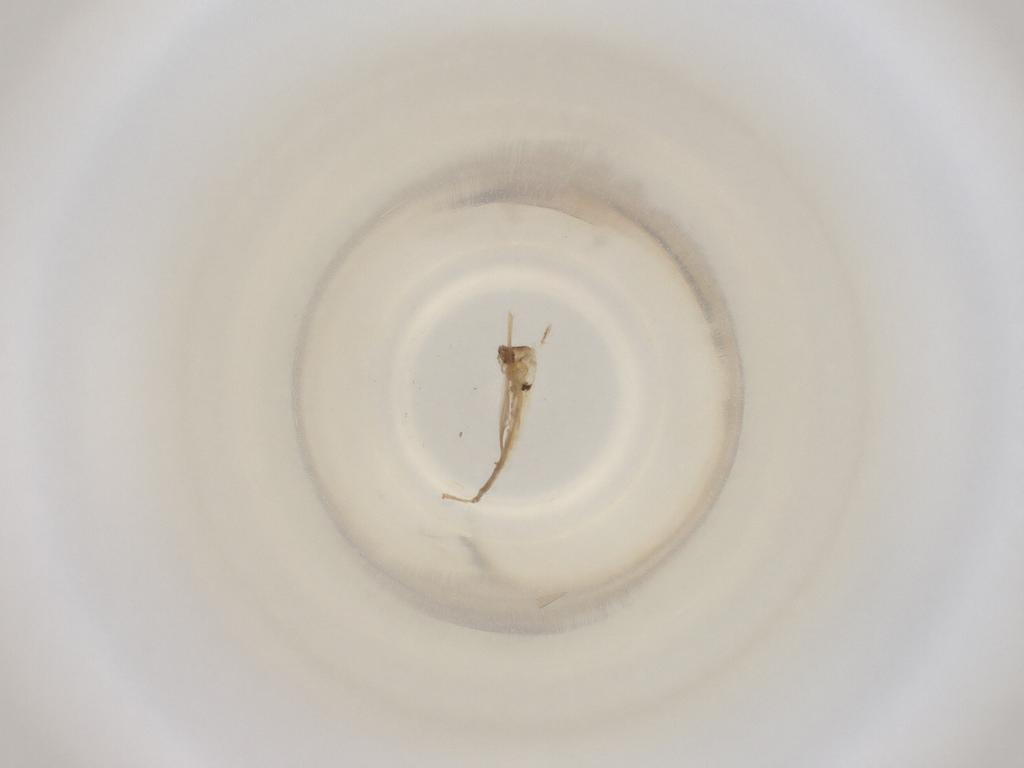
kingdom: Animalia
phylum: Arthropoda
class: Insecta
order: Diptera
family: Cecidomyiidae
